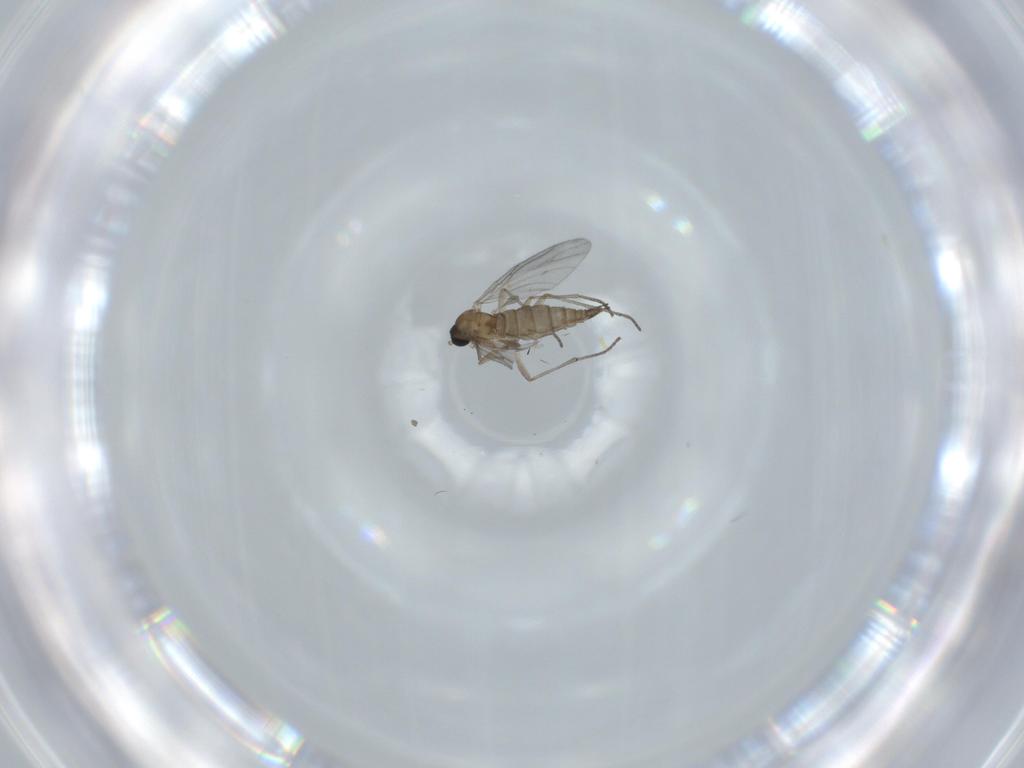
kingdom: Animalia
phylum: Arthropoda
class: Insecta
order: Diptera
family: Sciaridae
